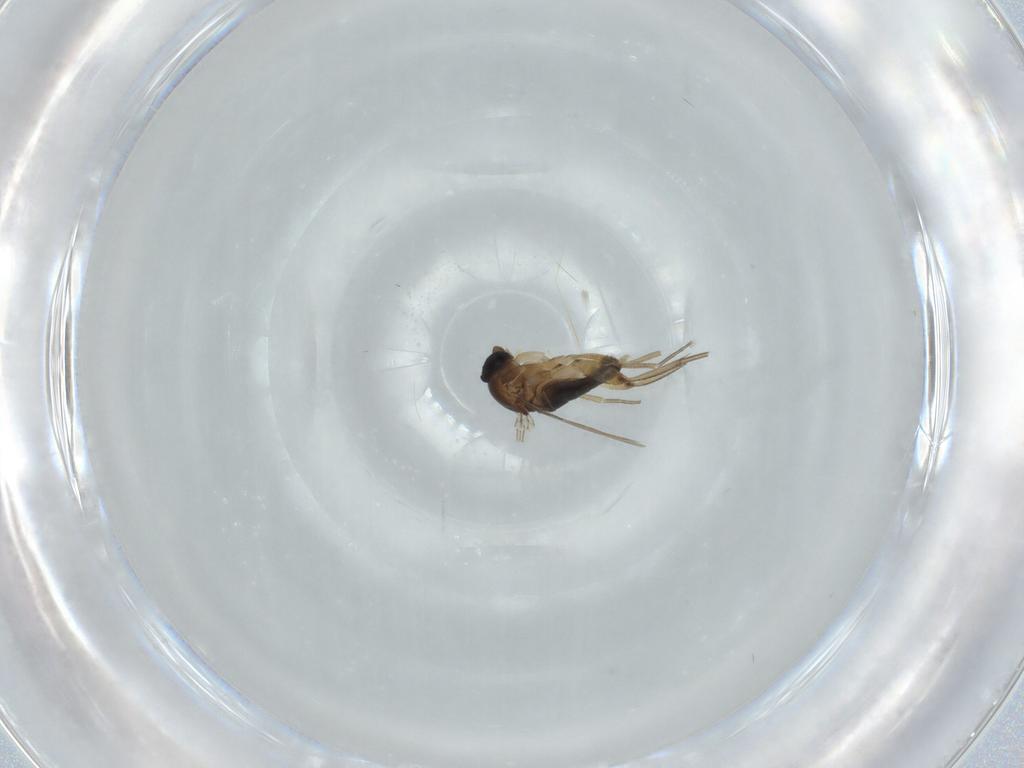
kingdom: Animalia
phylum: Arthropoda
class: Insecta
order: Diptera
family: Phoridae
